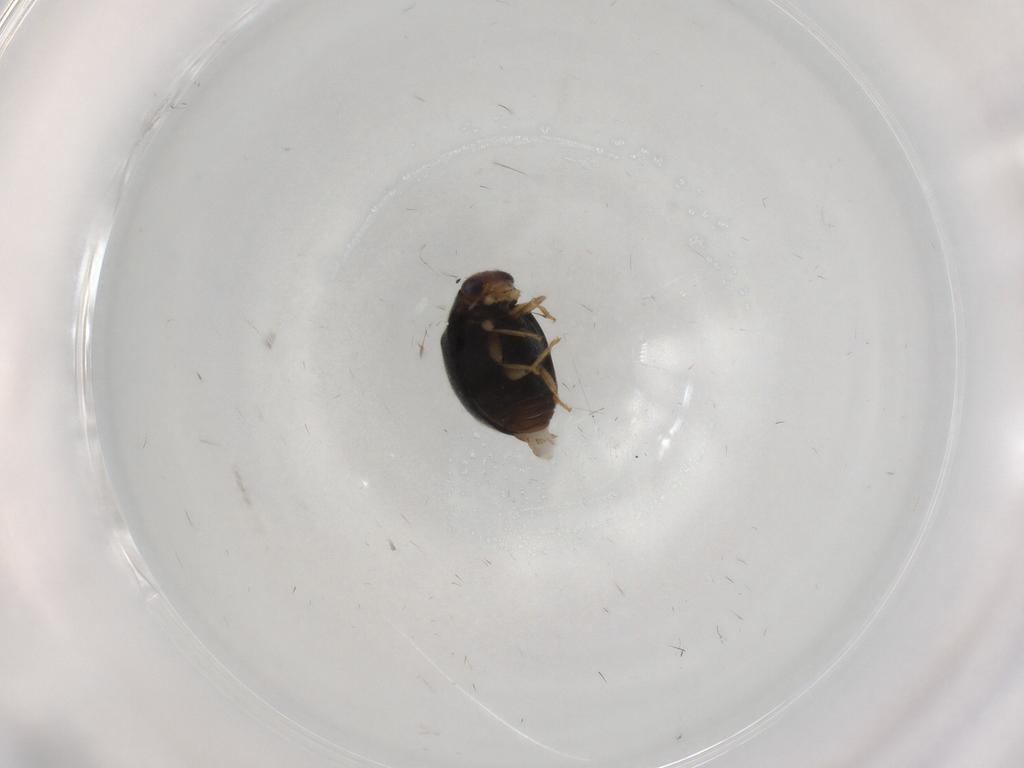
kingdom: Animalia
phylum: Arthropoda
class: Insecta
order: Coleoptera
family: Coccinellidae
